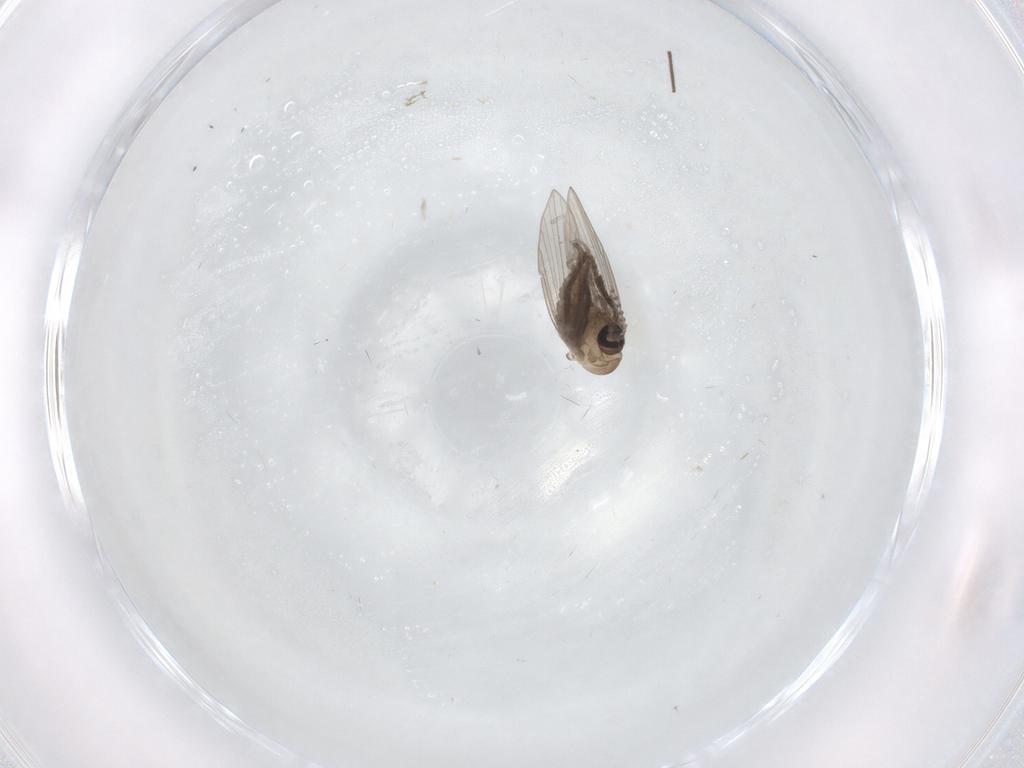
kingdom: Animalia
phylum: Arthropoda
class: Insecta
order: Diptera
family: Psychodidae
